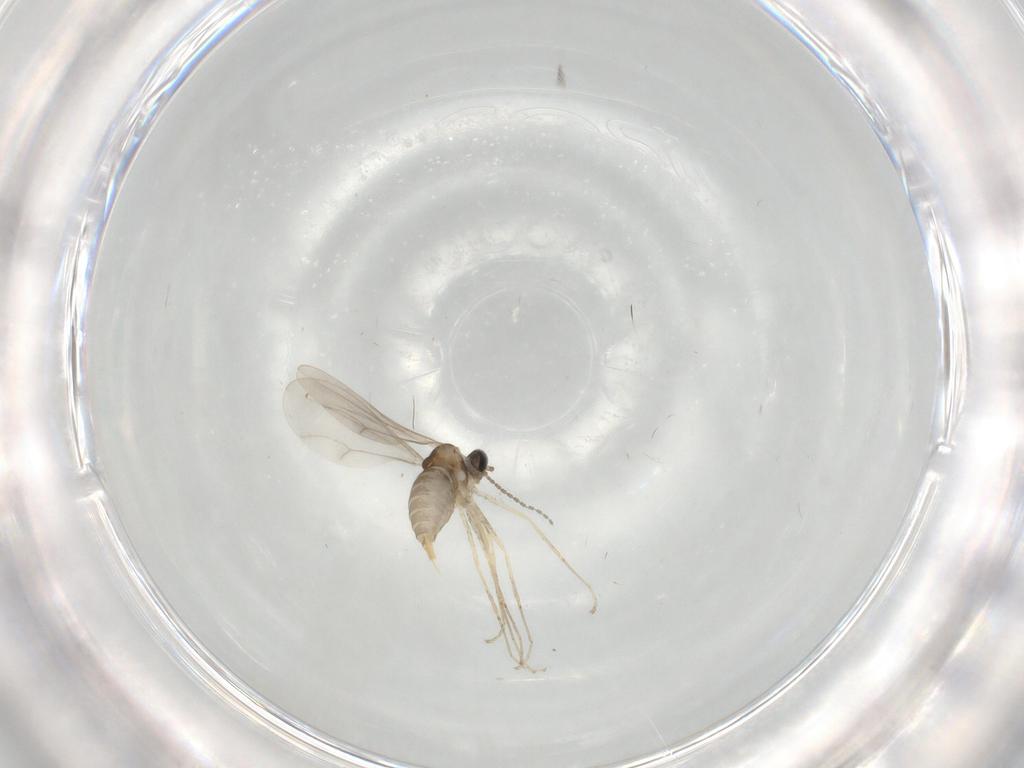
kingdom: Animalia
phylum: Arthropoda
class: Insecta
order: Diptera
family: Cecidomyiidae
